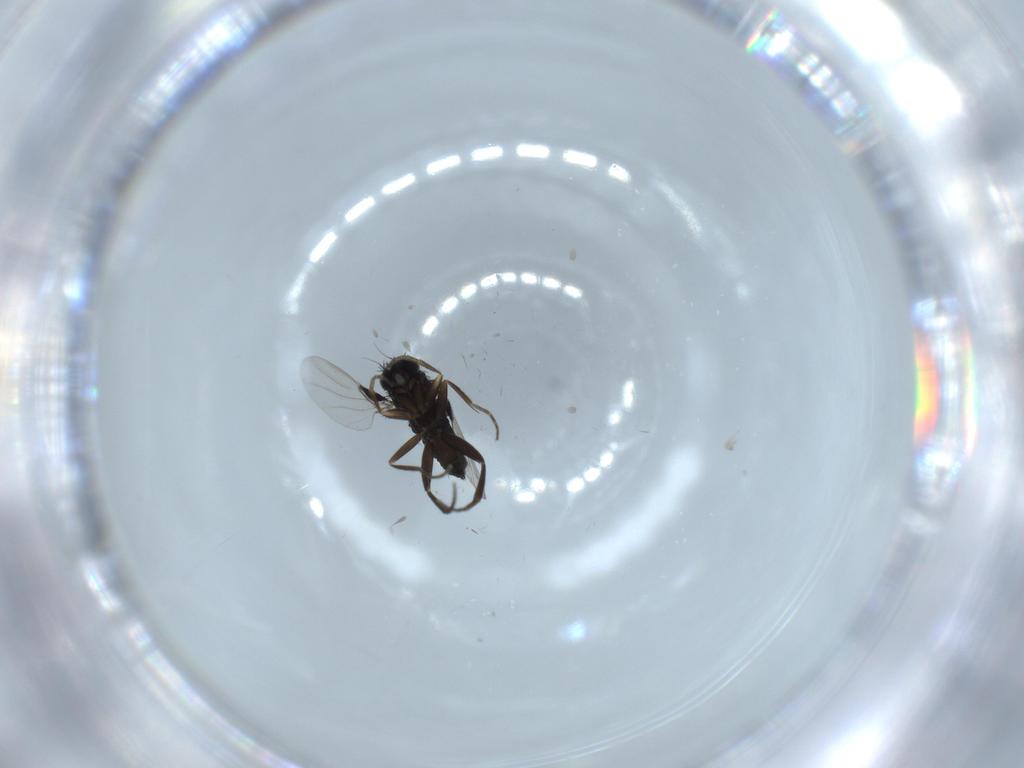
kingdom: Animalia
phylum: Arthropoda
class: Insecta
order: Diptera
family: Phoridae
